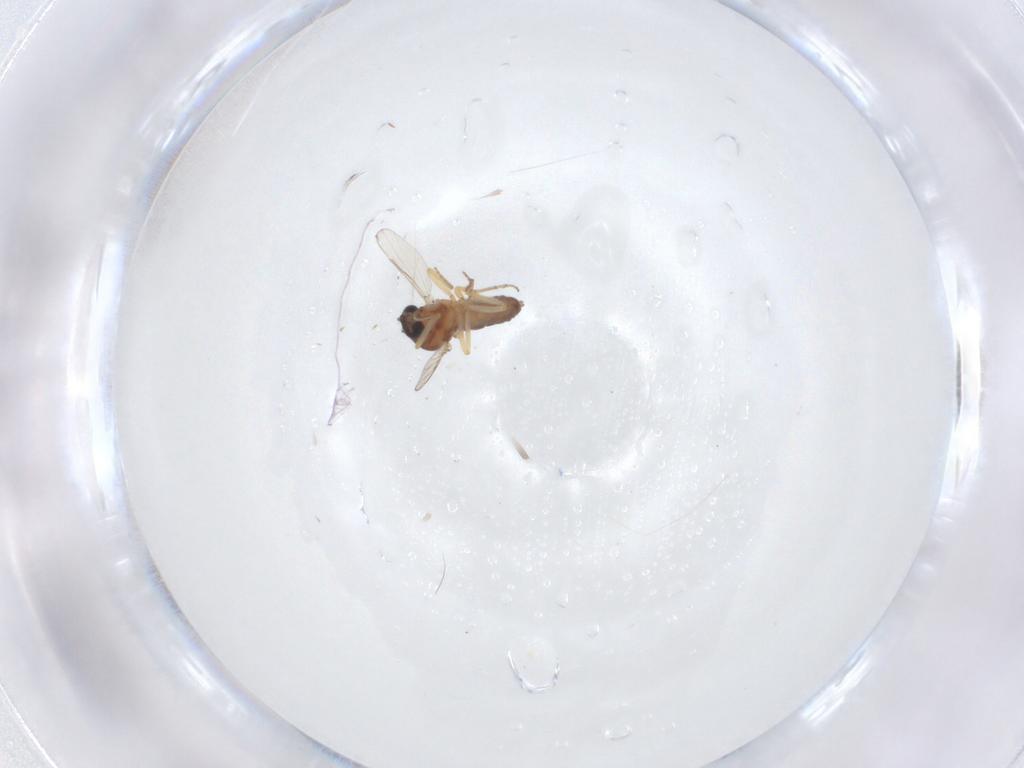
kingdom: Animalia
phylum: Arthropoda
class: Insecta
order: Diptera
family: Ceratopogonidae
